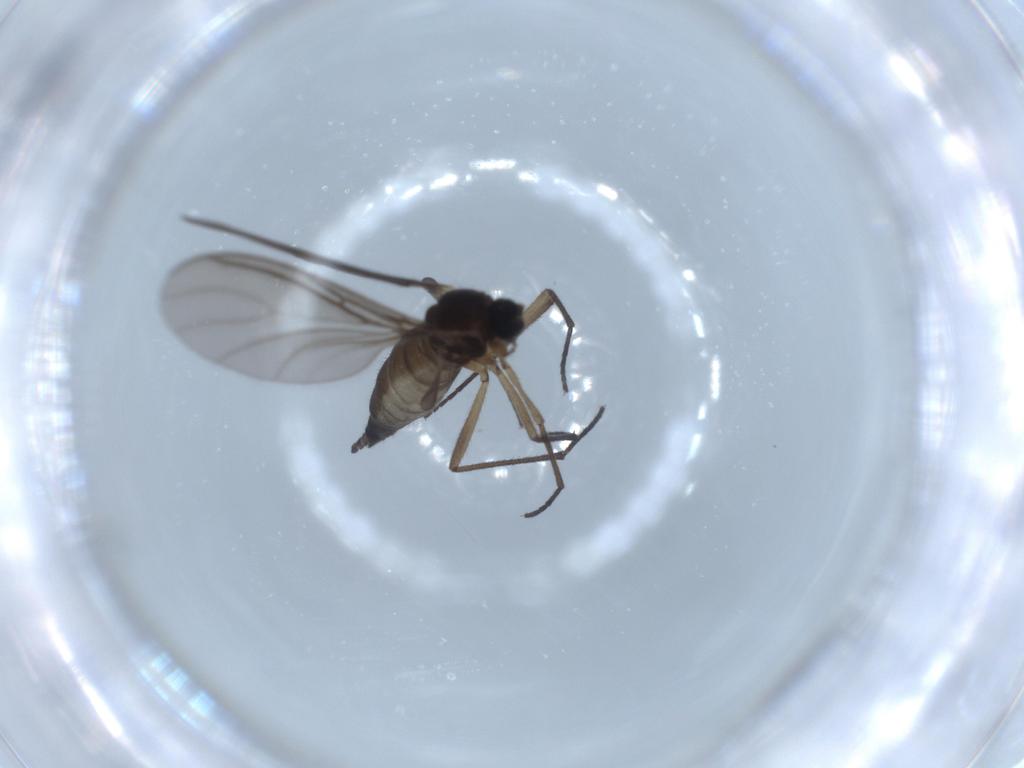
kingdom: Animalia
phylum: Arthropoda
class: Insecta
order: Diptera
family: Sciaridae
